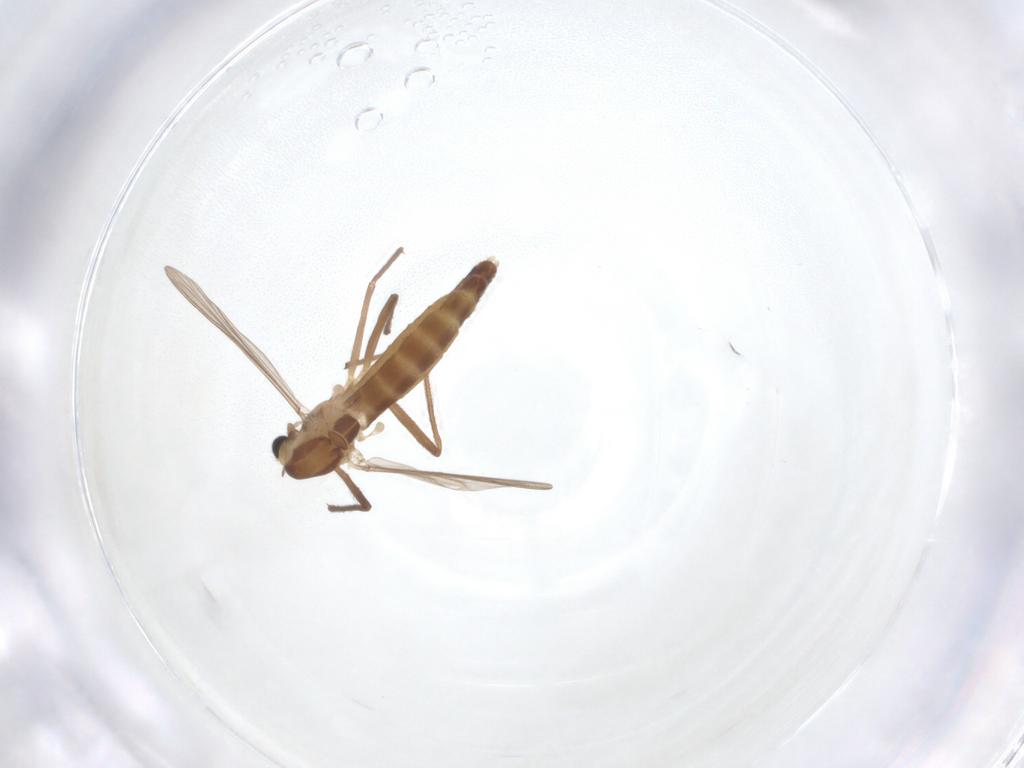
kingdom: Animalia
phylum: Arthropoda
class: Insecta
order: Diptera
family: Chironomidae
